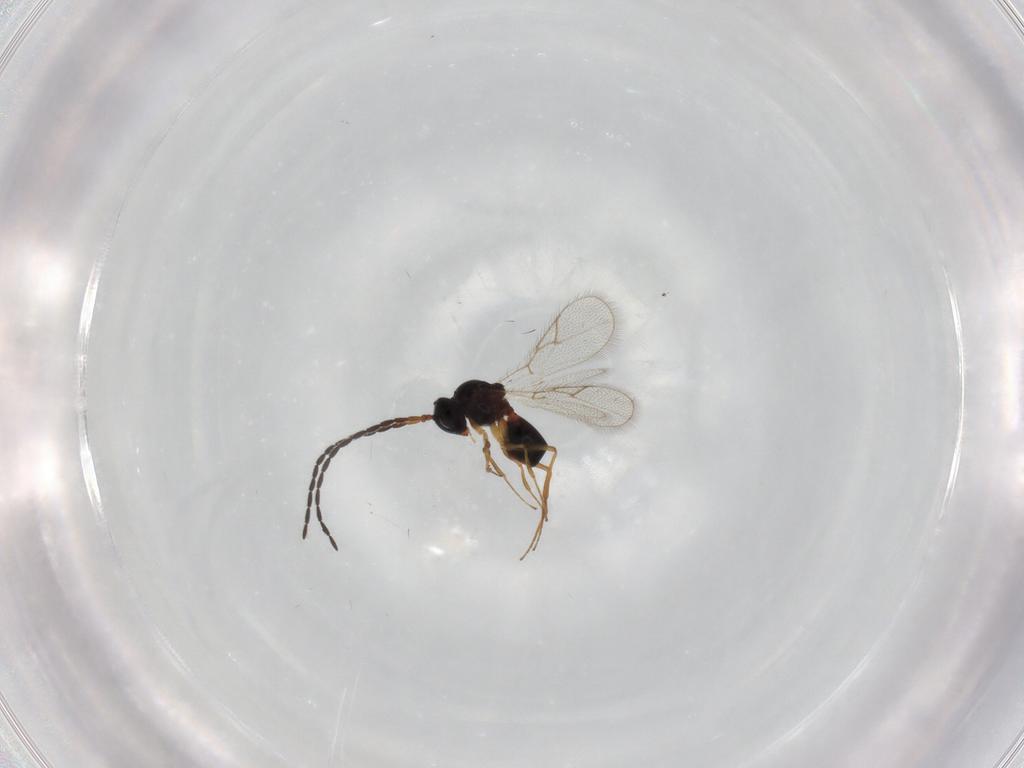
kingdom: Animalia
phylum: Arthropoda
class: Insecta
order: Hymenoptera
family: Figitidae
